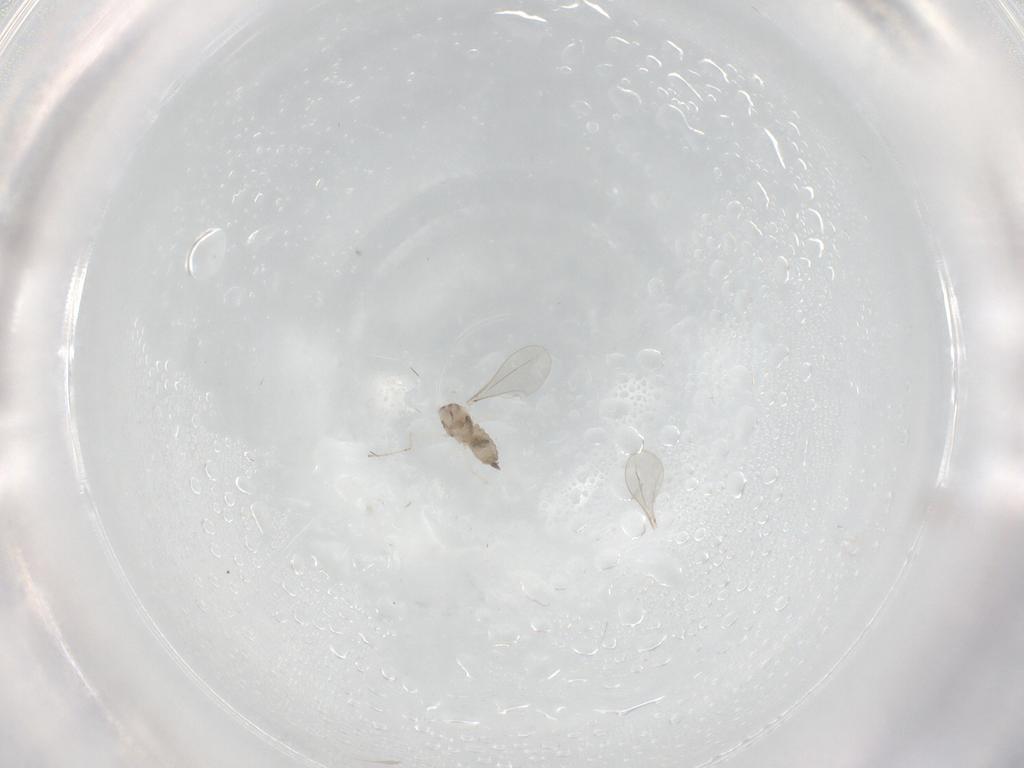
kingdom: Animalia
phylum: Arthropoda
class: Insecta
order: Diptera
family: Cecidomyiidae
